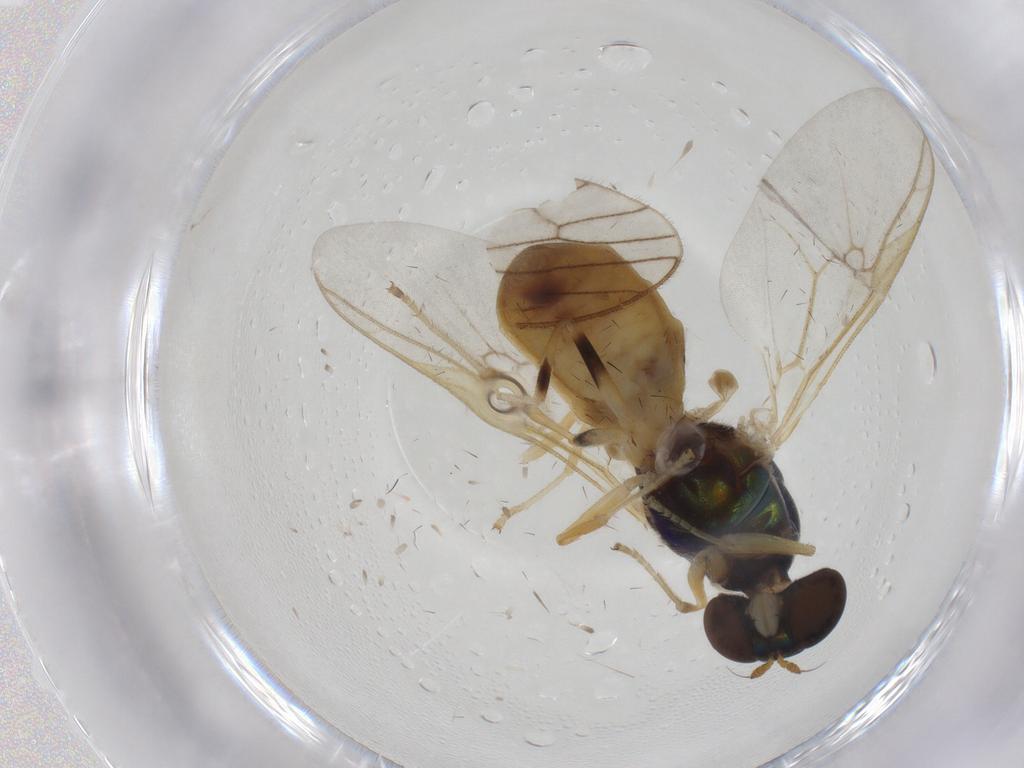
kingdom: Animalia
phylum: Arthropoda
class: Insecta
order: Diptera
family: Stratiomyidae
